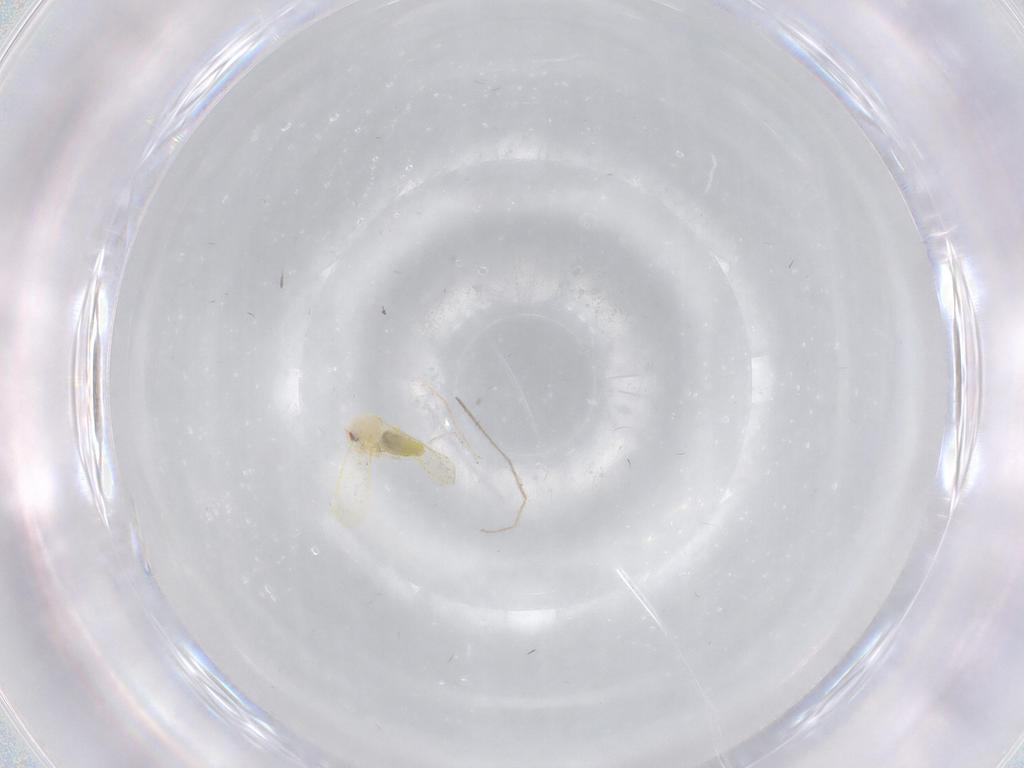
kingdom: Animalia
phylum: Arthropoda
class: Insecta
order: Hemiptera
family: Aleyrodidae
